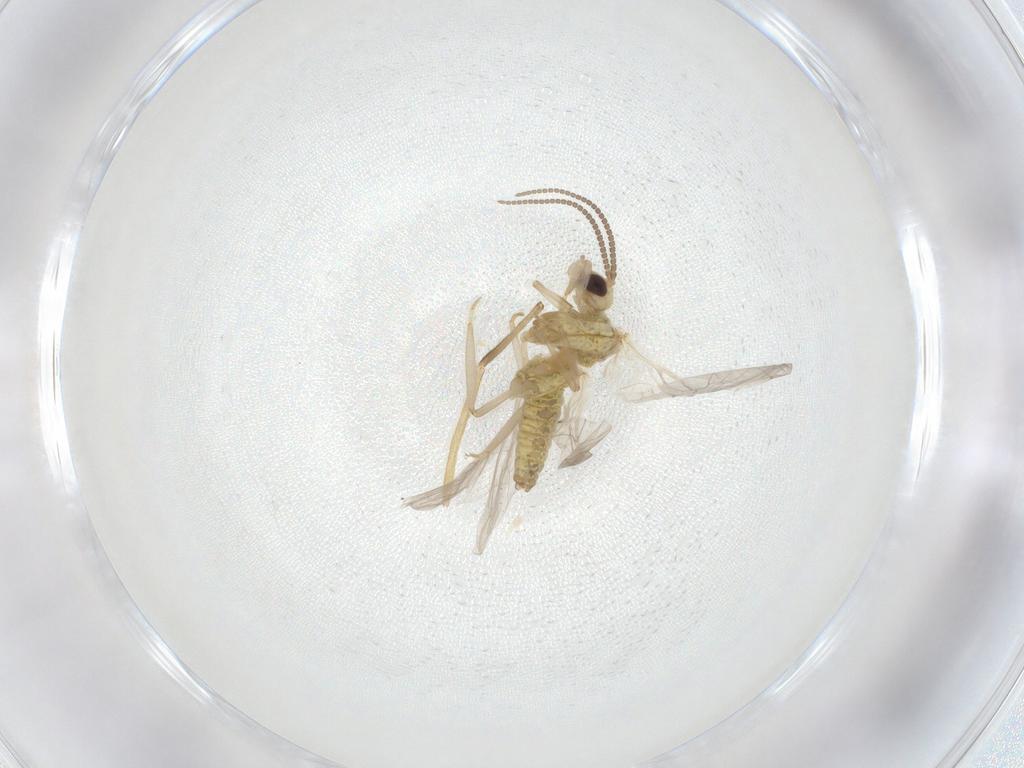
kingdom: Animalia
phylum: Arthropoda
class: Insecta
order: Diptera
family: Chironomidae
